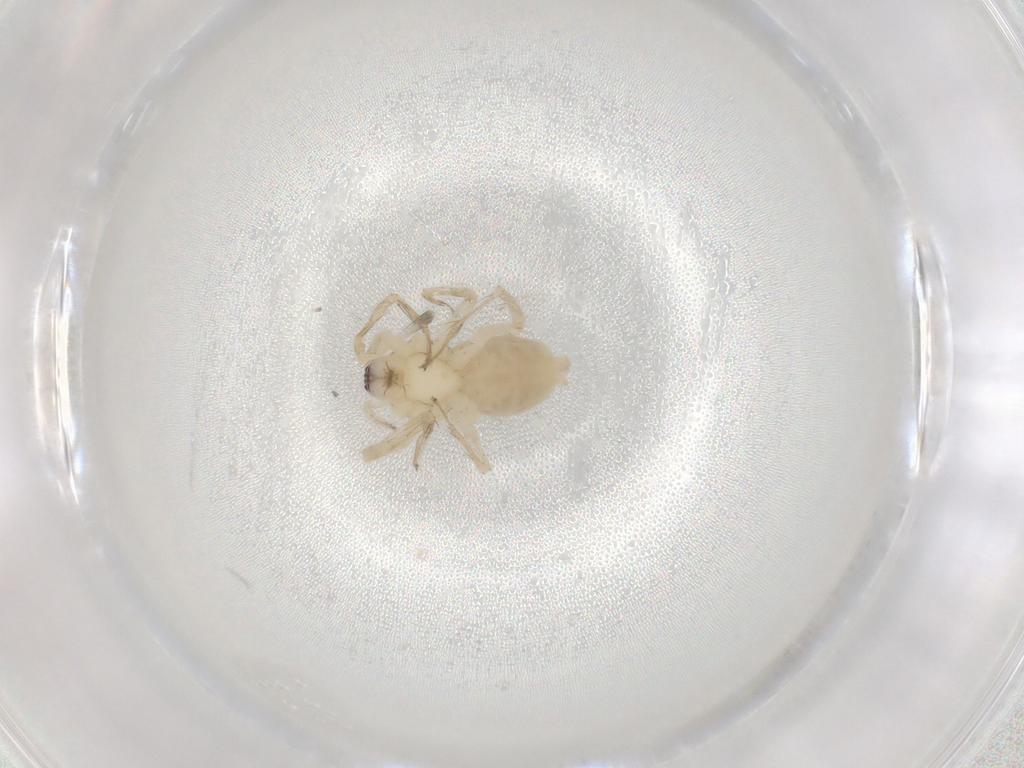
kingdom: Animalia
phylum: Arthropoda
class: Arachnida
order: Araneae
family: Anyphaenidae
